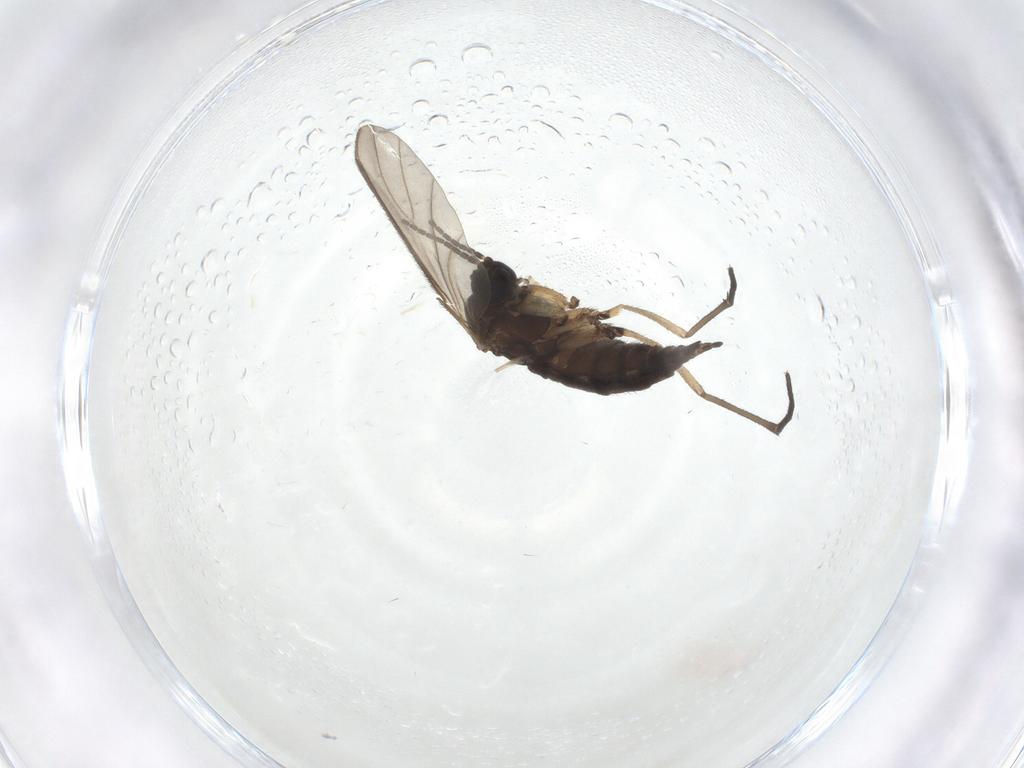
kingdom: Animalia
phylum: Arthropoda
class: Insecta
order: Diptera
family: Sciaridae
